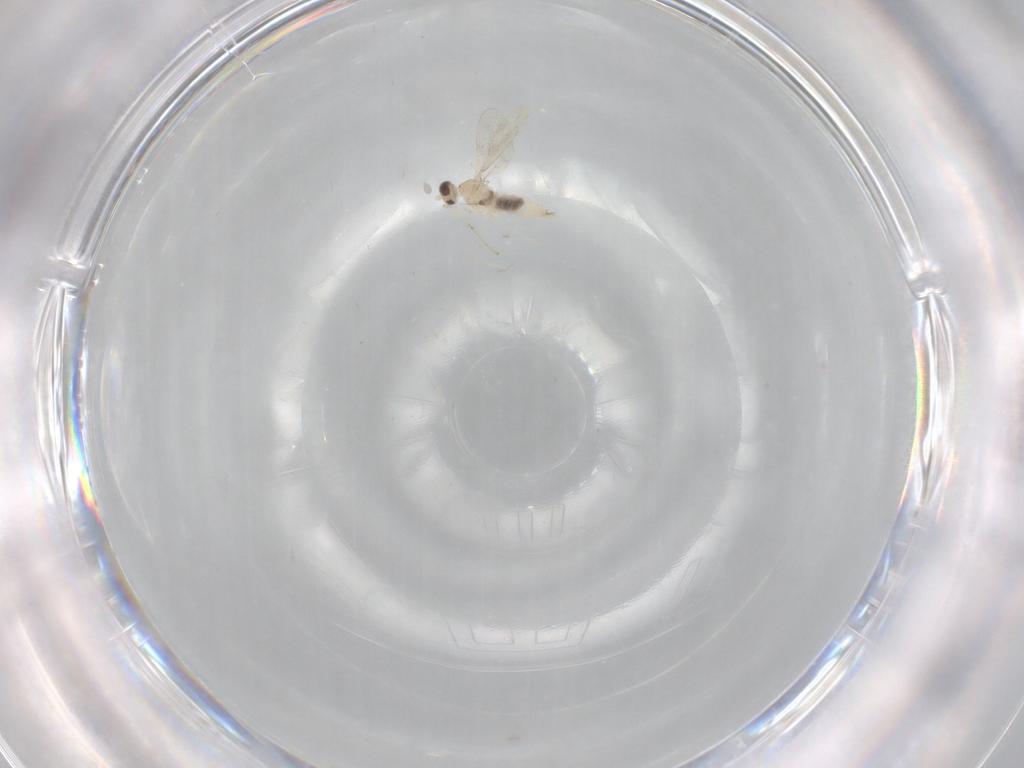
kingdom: Animalia
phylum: Arthropoda
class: Insecta
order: Diptera
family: Cecidomyiidae
